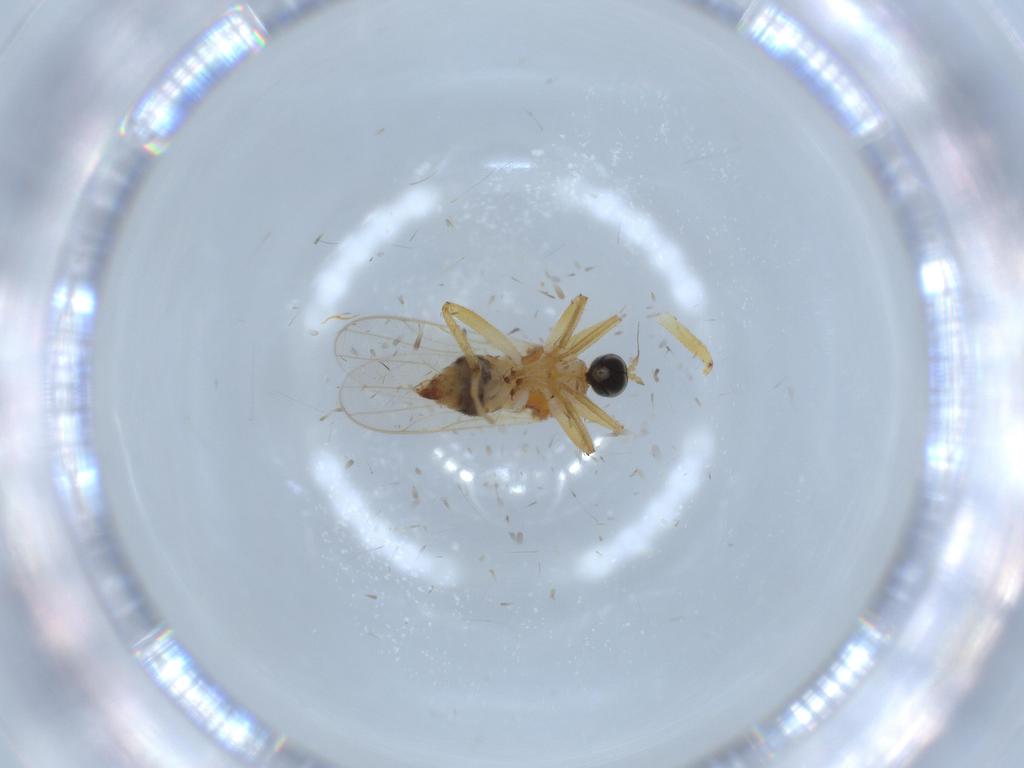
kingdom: Animalia
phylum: Arthropoda
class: Insecta
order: Diptera
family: Hybotidae
